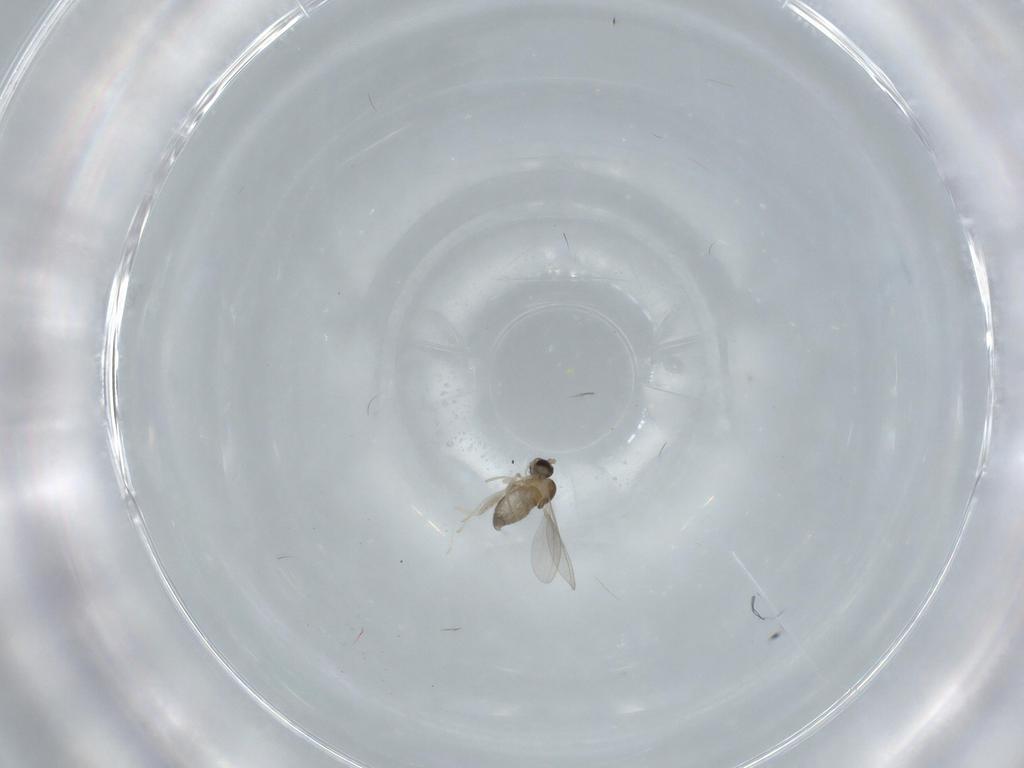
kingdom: Animalia
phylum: Arthropoda
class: Insecta
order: Diptera
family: Cecidomyiidae
